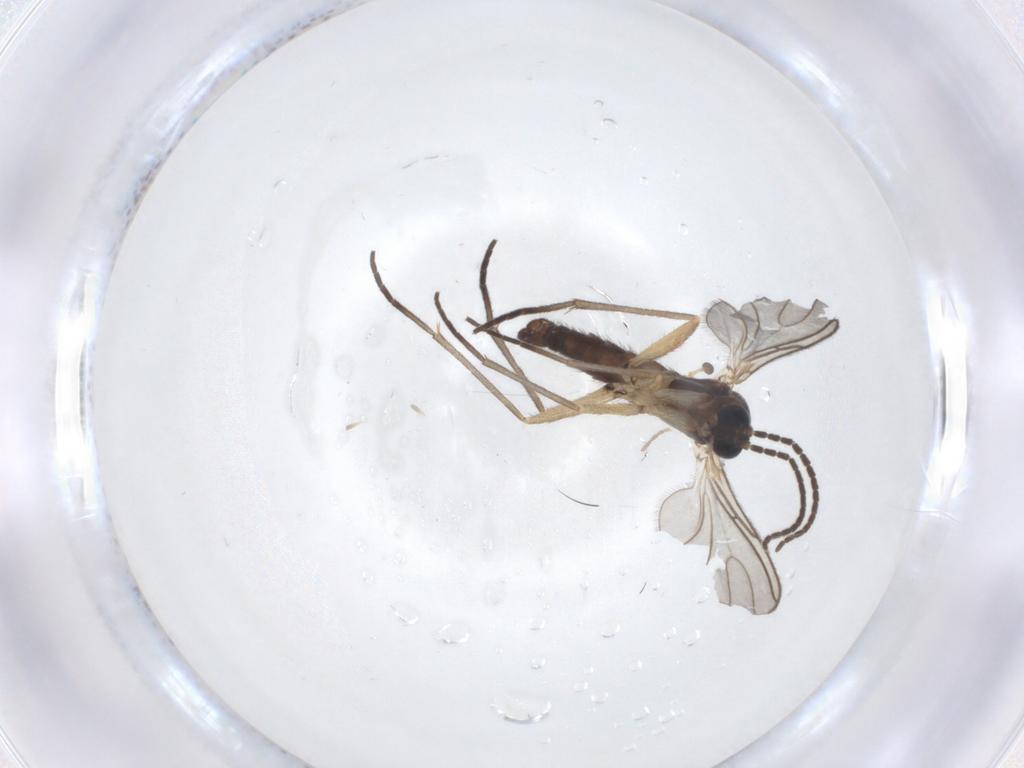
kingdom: Animalia
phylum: Arthropoda
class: Insecta
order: Diptera
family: Cecidomyiidae
